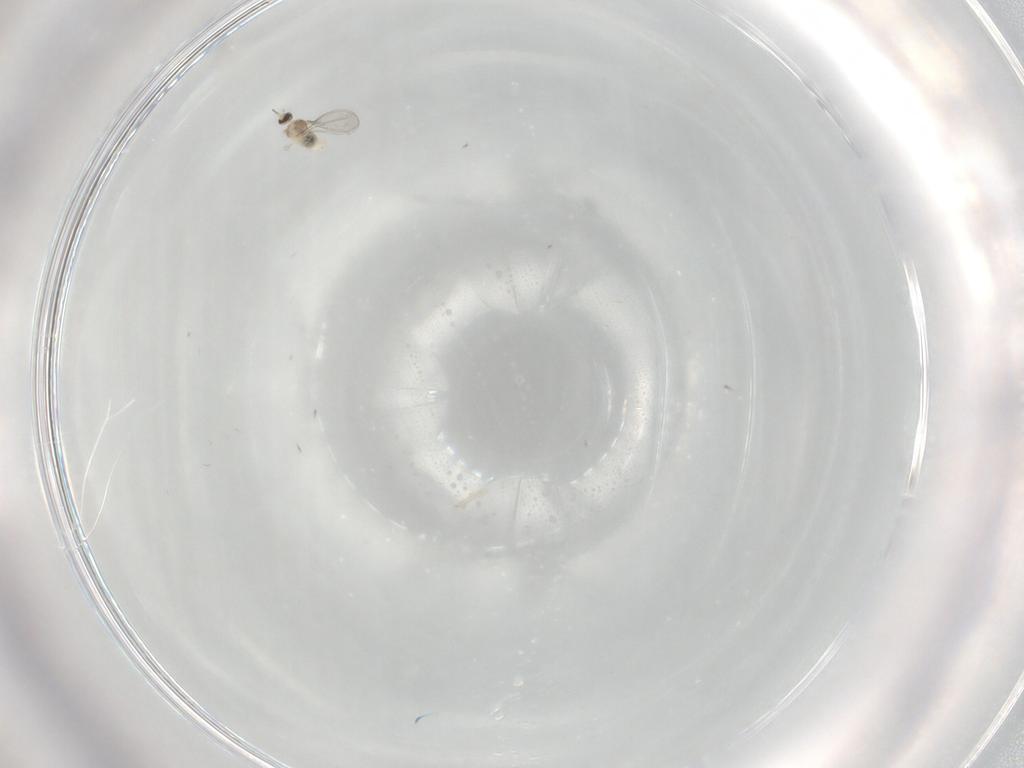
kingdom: Animalia
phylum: Arthropoda
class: Insecta
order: Diptera
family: Cecidomyiidae
